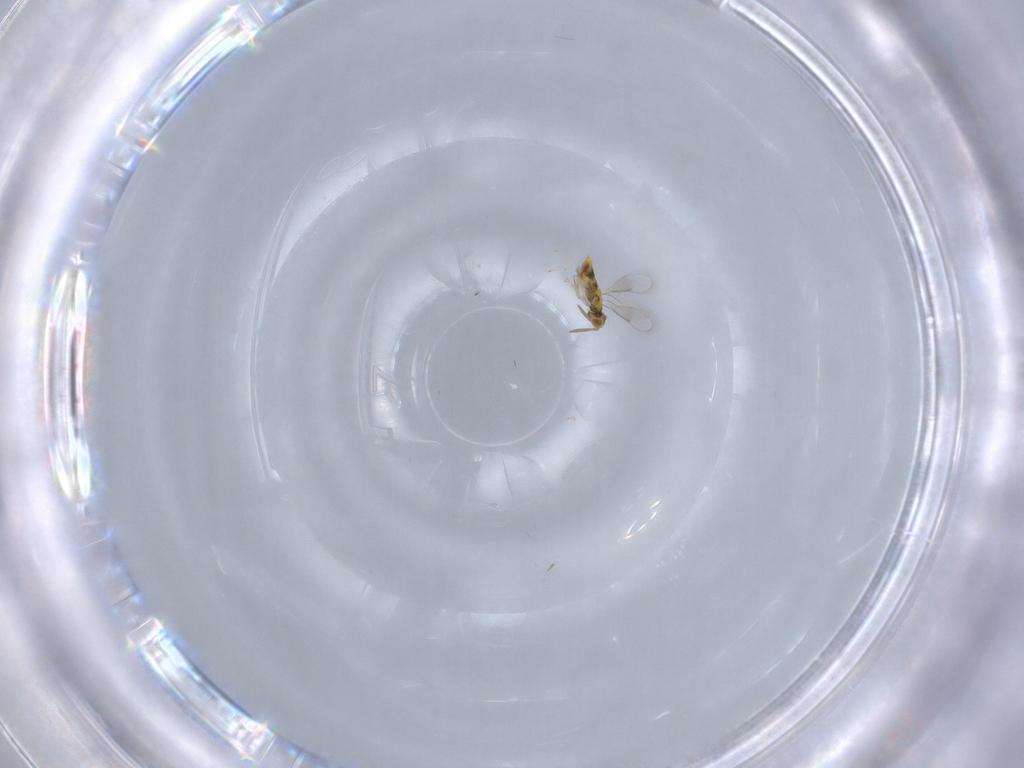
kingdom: Animalia
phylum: Arthropoda
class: Insecta
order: Hymenoptera
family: Aphelinidae
